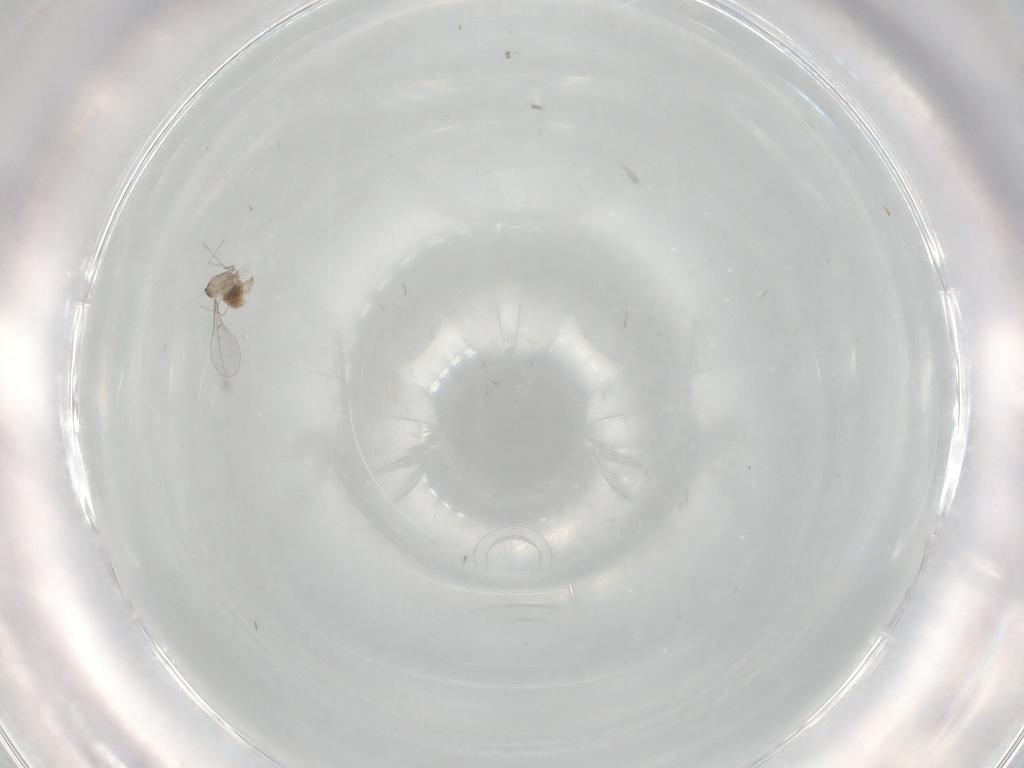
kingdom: Animalia
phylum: Arthropoda
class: Insecta
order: Diptera
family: Cecidomyiidae
